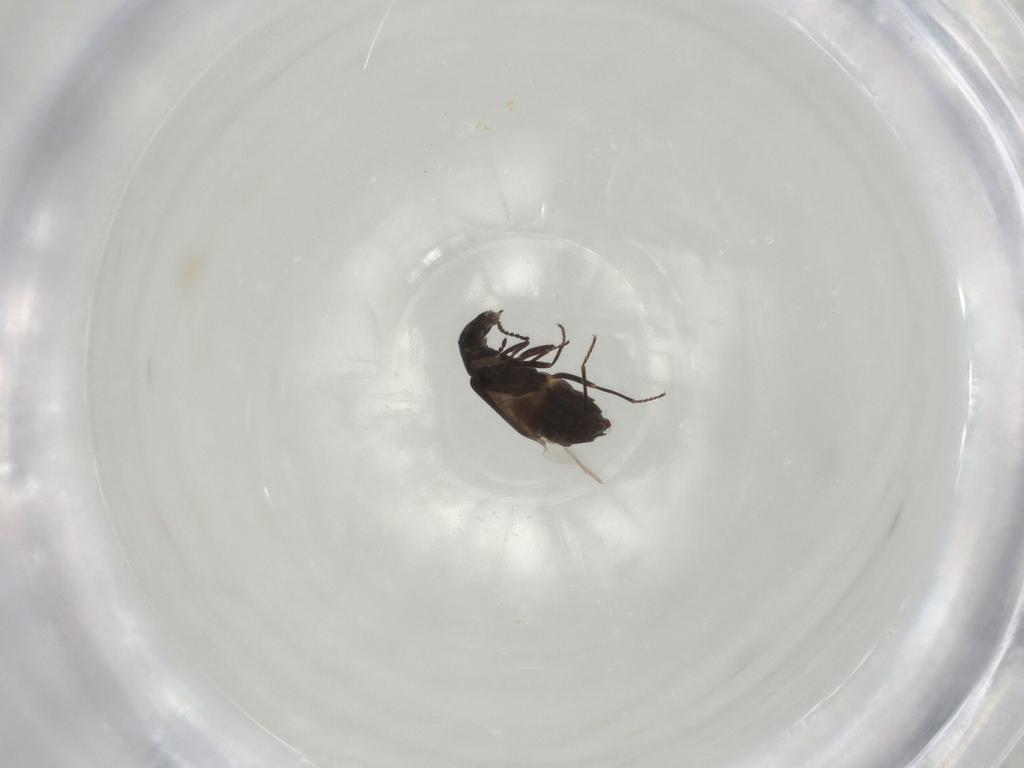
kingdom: Animalia
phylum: Arthropoda
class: Insecta
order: Coleoptera
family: Melyridae
